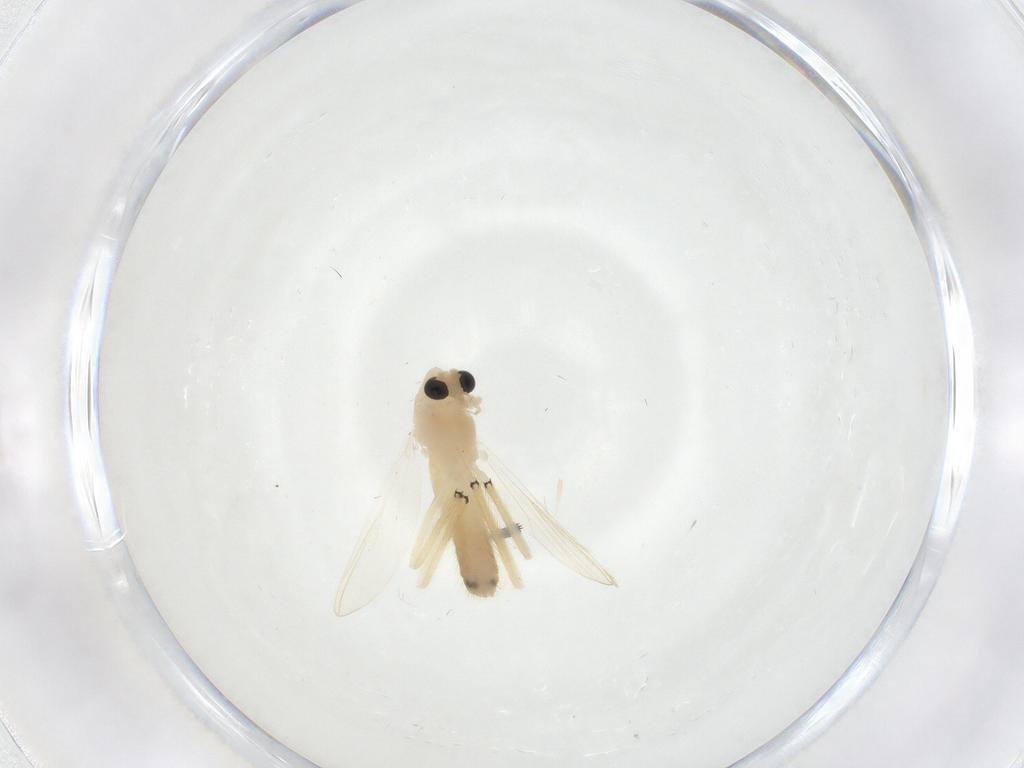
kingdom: Animalia
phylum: Arthropoda
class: Insecta
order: Diptera
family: Chironomidae
